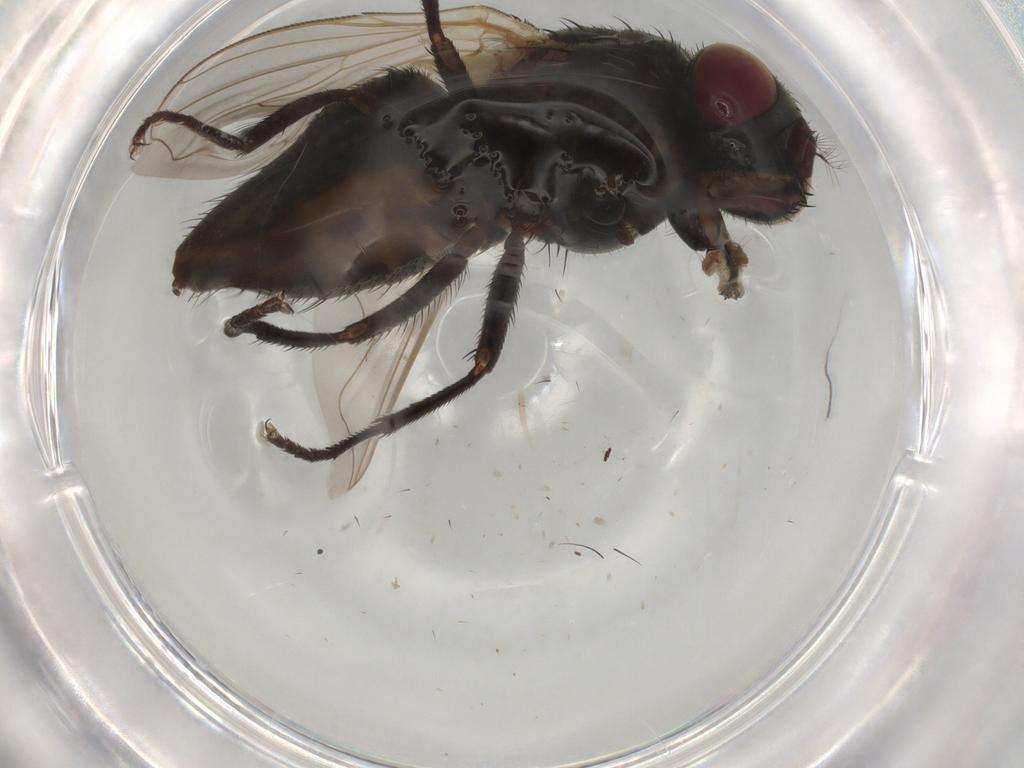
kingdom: Animalia
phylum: Arthropoda
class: Insecta
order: Diptera
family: Muscidae
